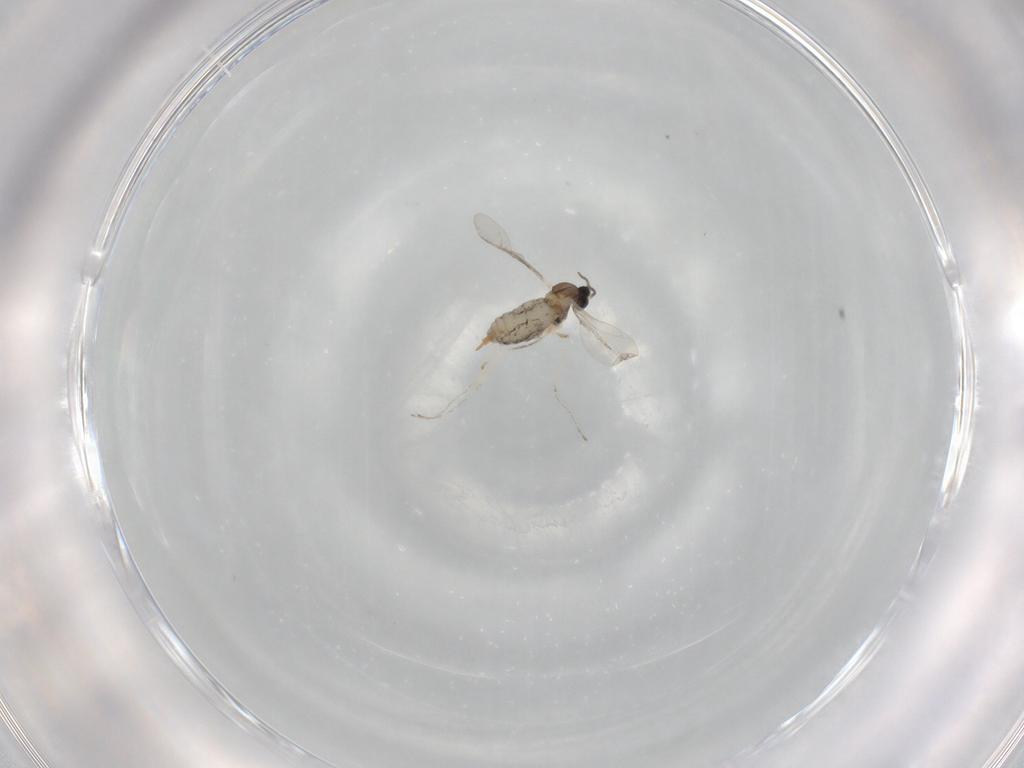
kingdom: Animalia
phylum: Arthropoda
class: Insecta
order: Diptera
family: Cecidomyiidae
